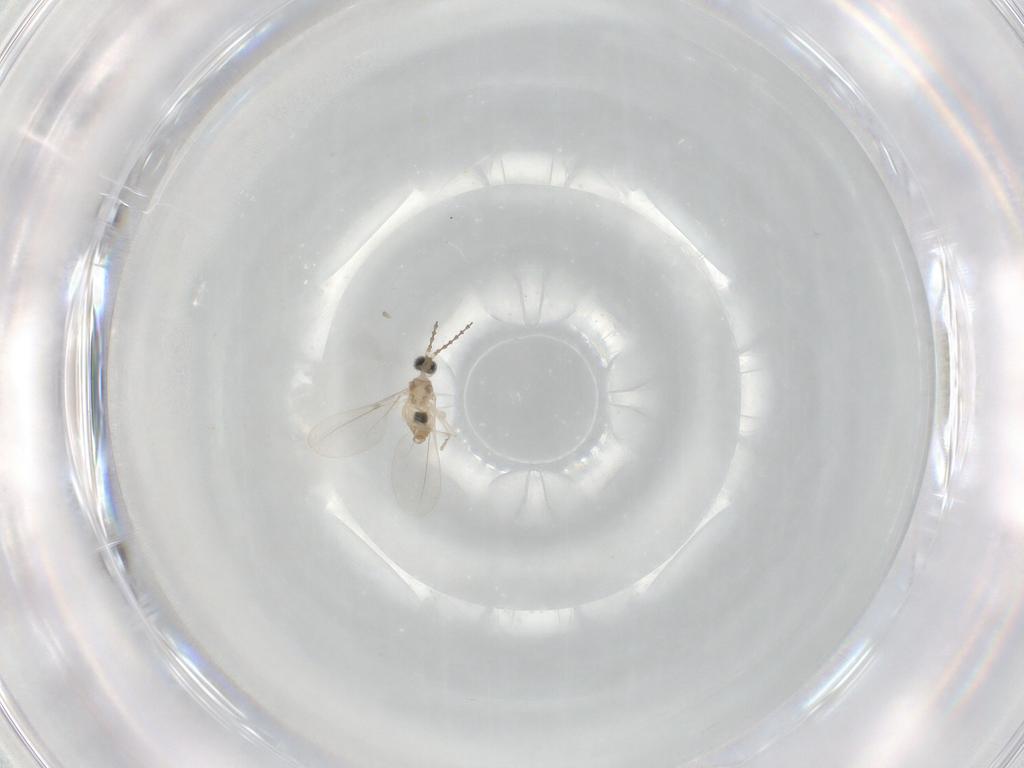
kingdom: Animalia
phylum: Arthropoda
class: Insecta
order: Diptera
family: Cecidomyiidae
